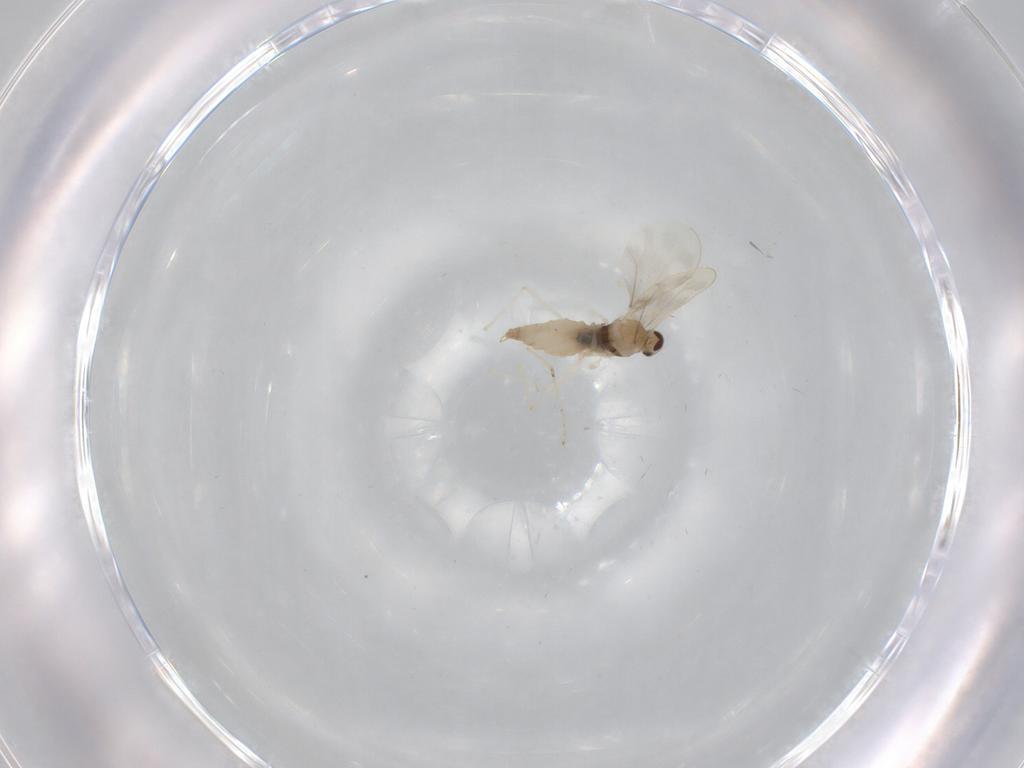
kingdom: Animalia
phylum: Arthropoda
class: Insecta
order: Diptera
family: Cecidomyiidae
